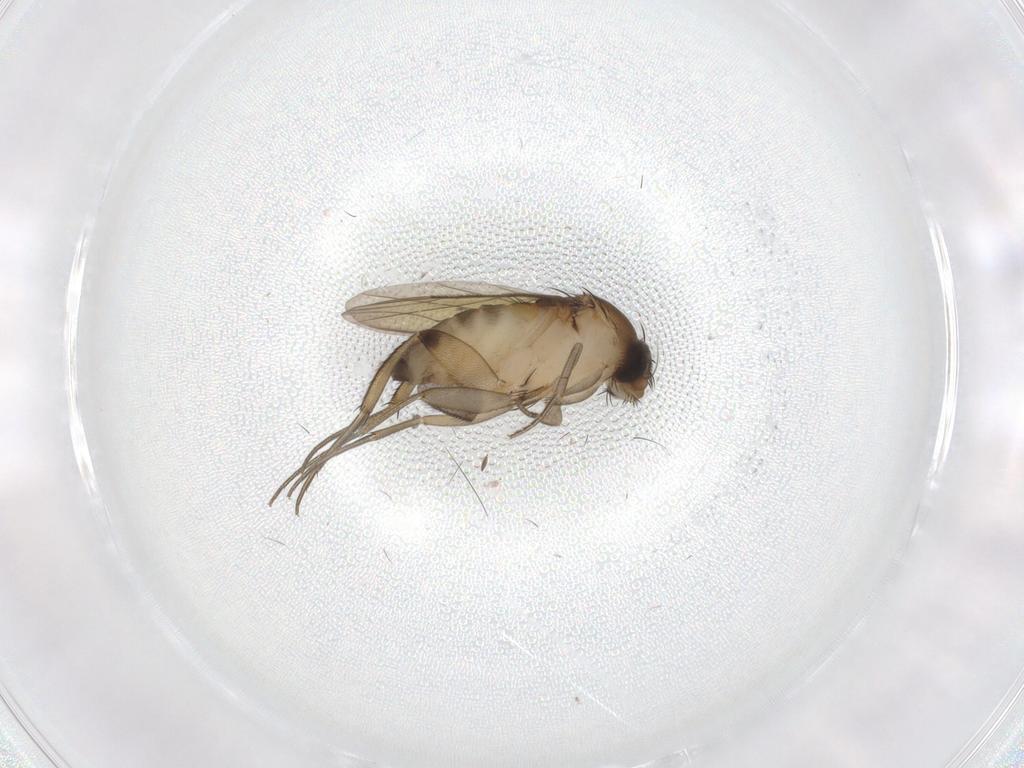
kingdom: Animalia
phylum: Arthropoda
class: Insecta
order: Diptera
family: Phoridae
